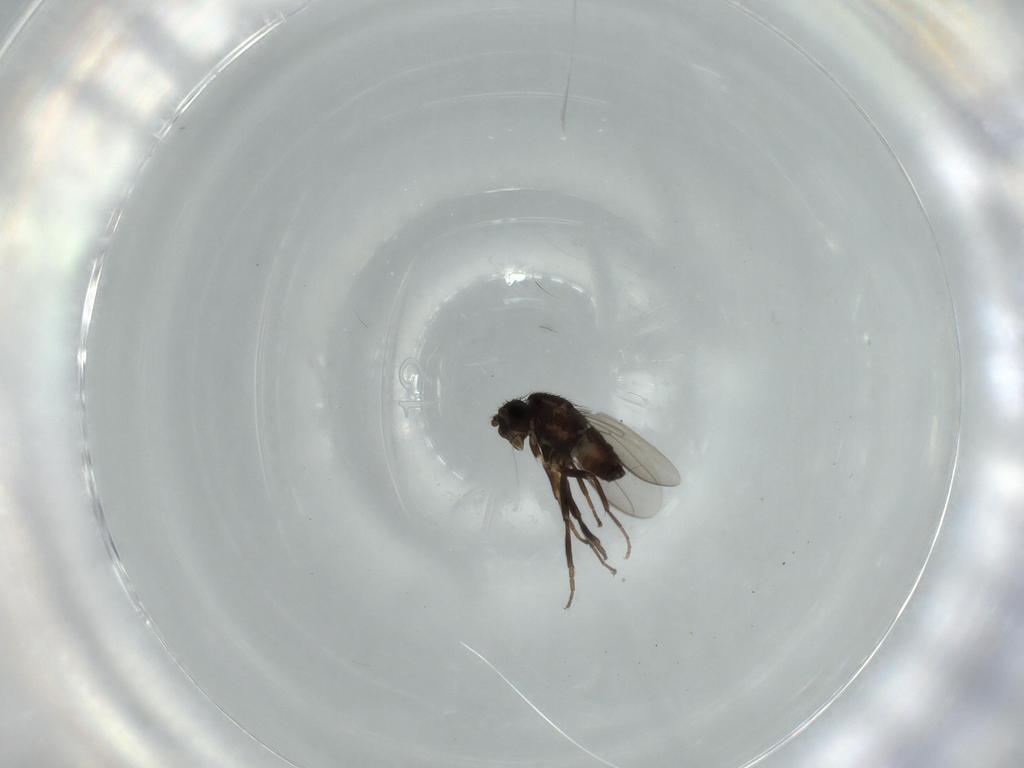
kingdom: Animalia
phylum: Arthropoda
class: Insecta
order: Diptera
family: Sphaeroceridae
